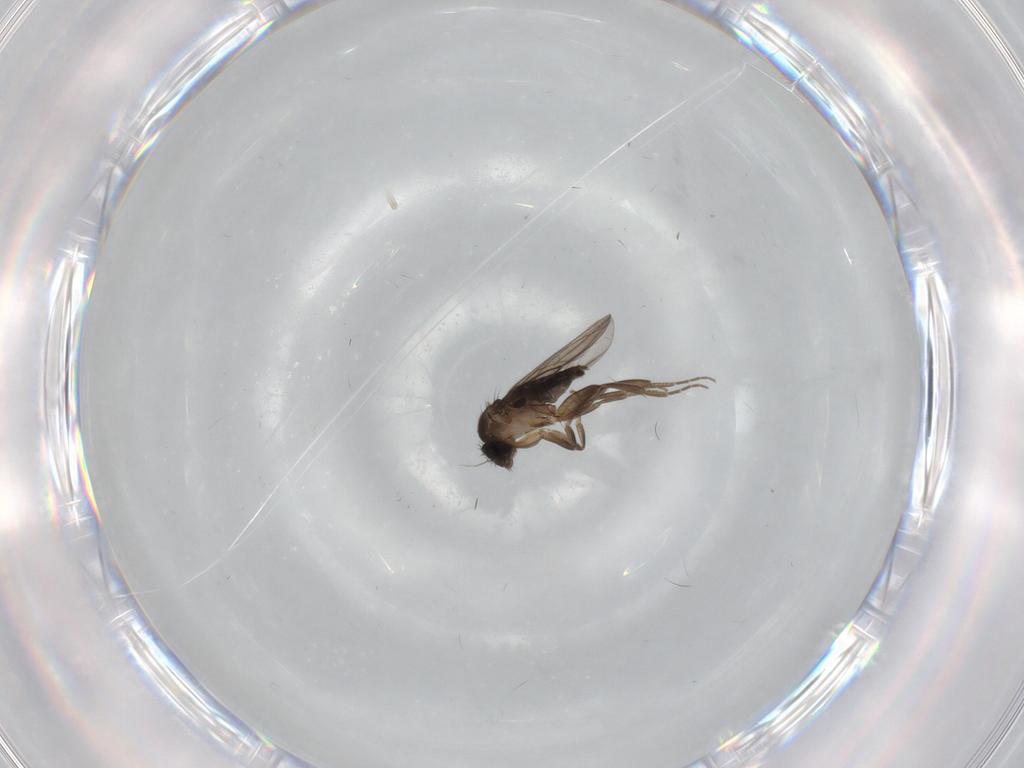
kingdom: Animalia
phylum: Arthropoda
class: Insecta
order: Diptera
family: Phoridae
